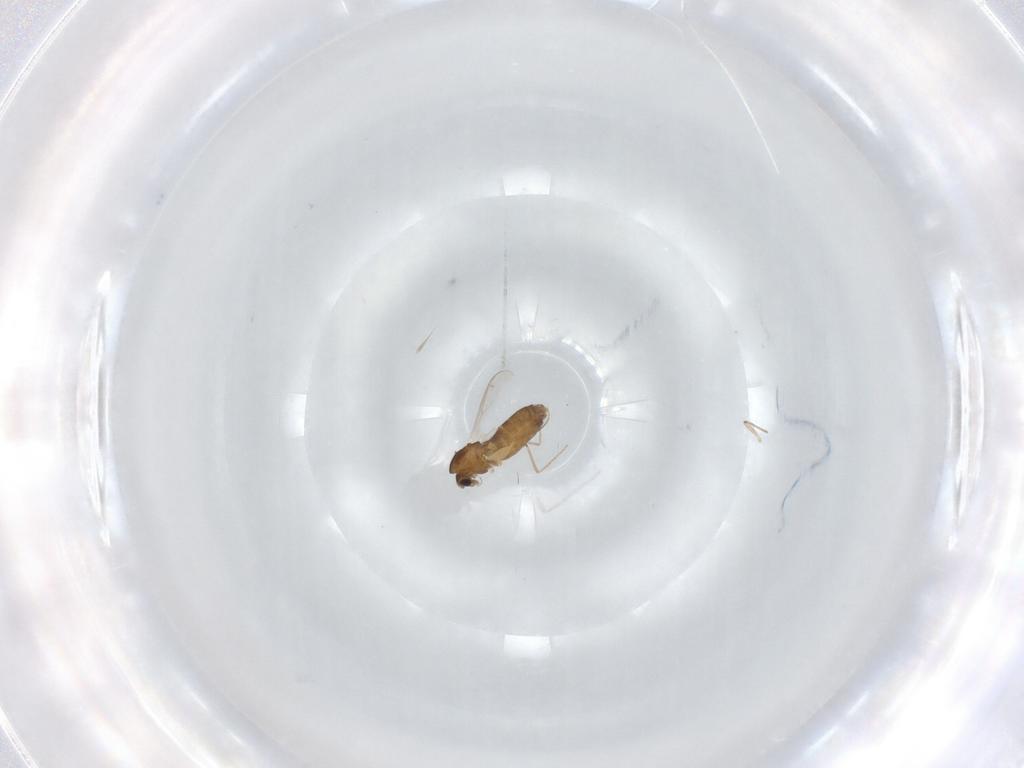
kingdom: Animalia
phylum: Arthropoda
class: Insecta
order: Diptera
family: Chironomidae
